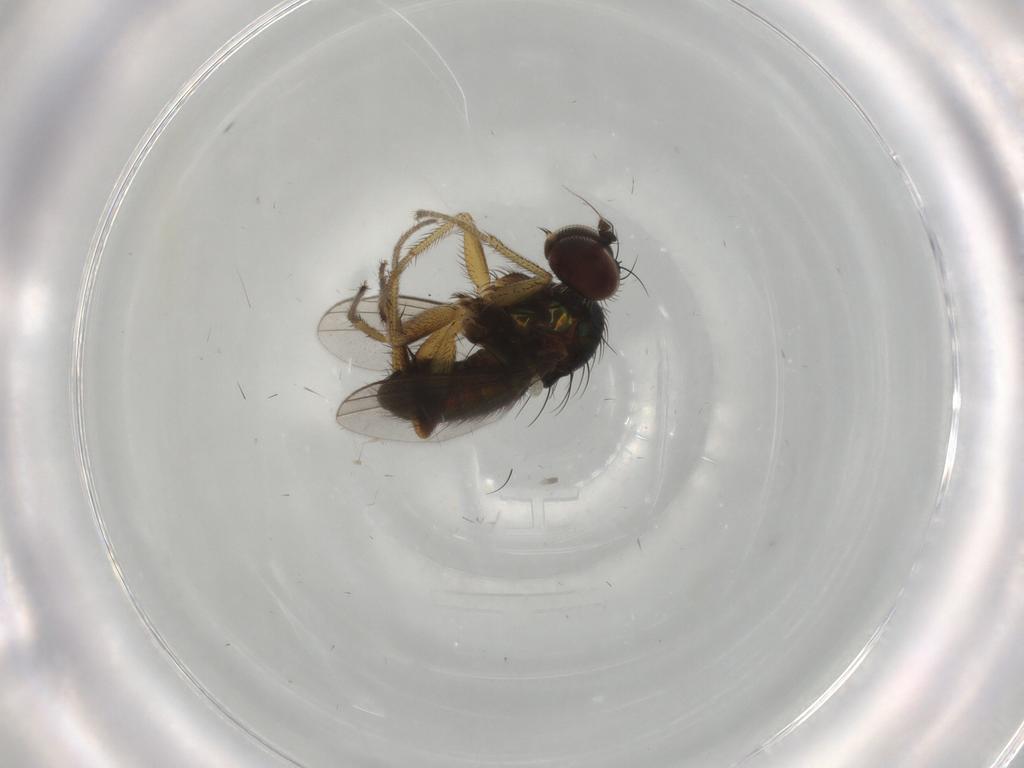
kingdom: Animalia
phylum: Arthropoda
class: Insecta
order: Diptera
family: Dolichopodidae
